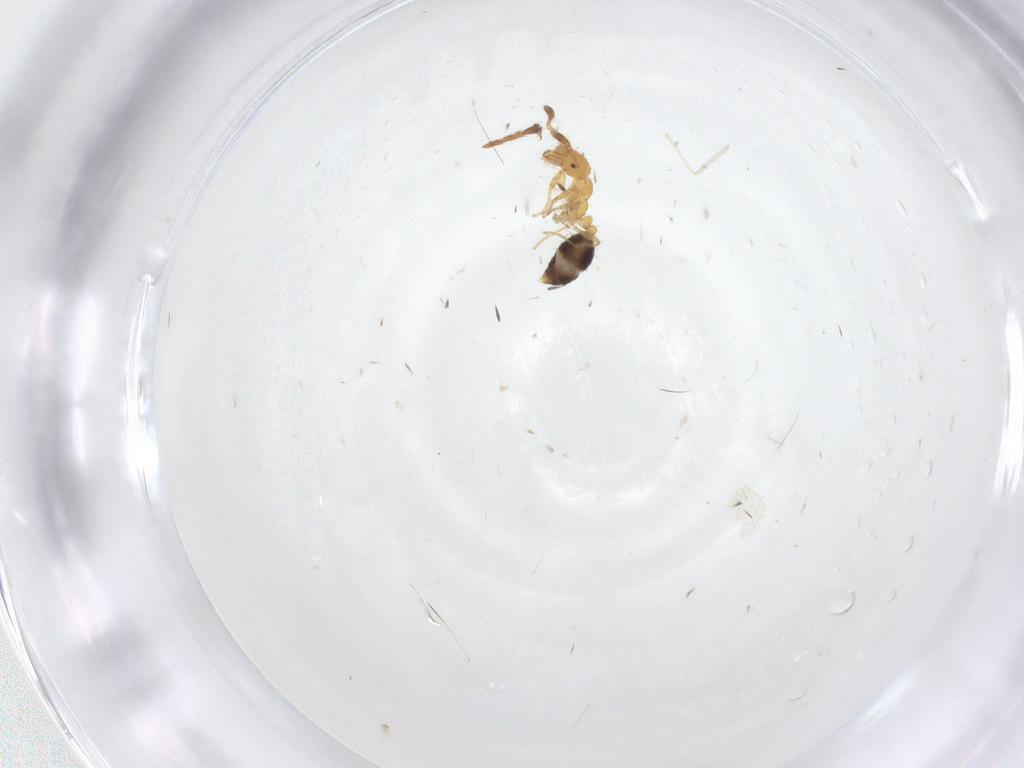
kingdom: Animalia
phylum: Arthropoda
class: Insecta
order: Hymenoptera
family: Formicidae
